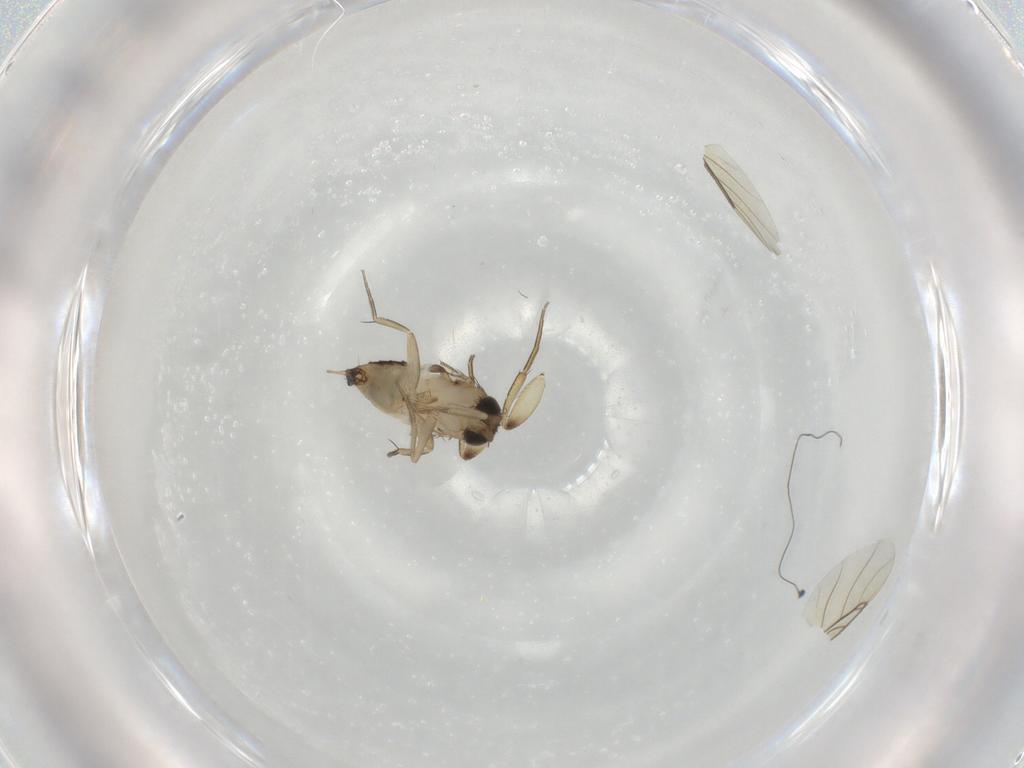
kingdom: Animalia
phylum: Arthropoda
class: Insecta
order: Diptera
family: Phoridae
